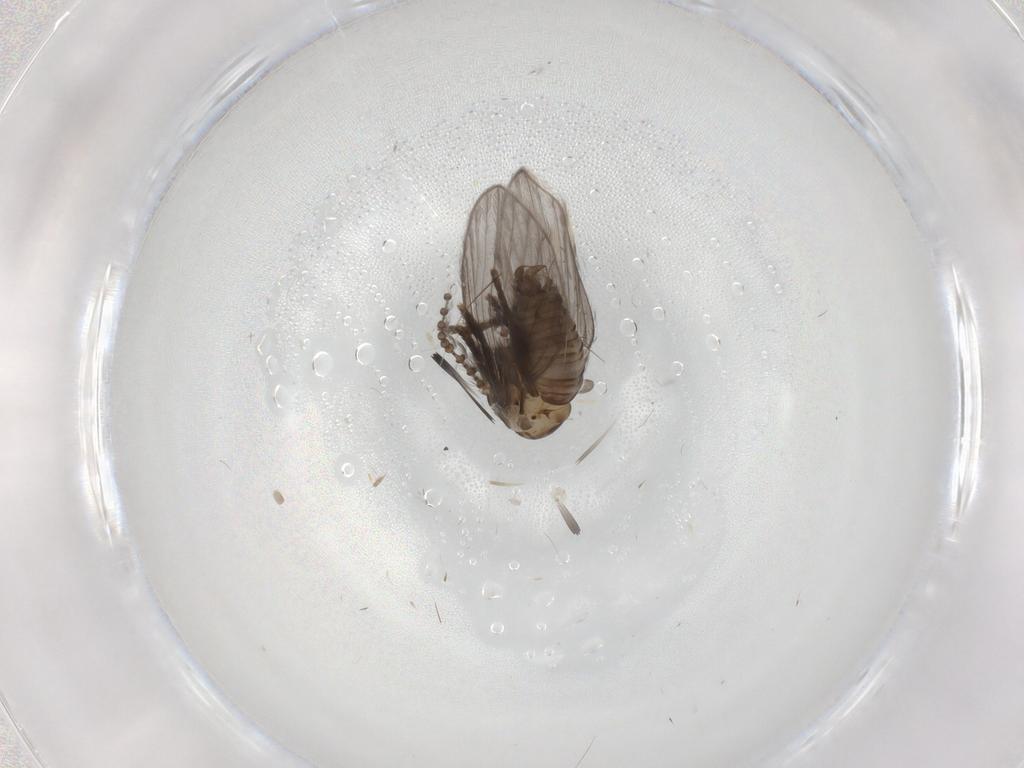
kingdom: Animalia
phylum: Arthropoda
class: Insecta
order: Diptera
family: Psychodidae
